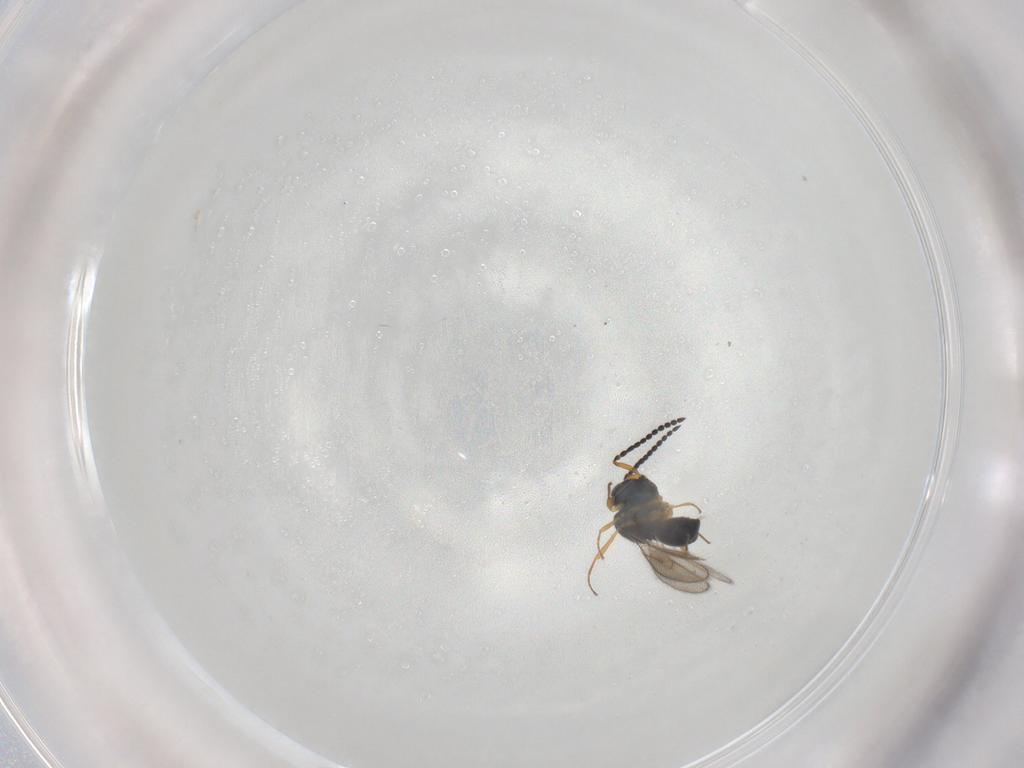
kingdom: Animalia
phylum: Arthropoda
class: Insecta
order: Hymenoptera
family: Scelionidae
